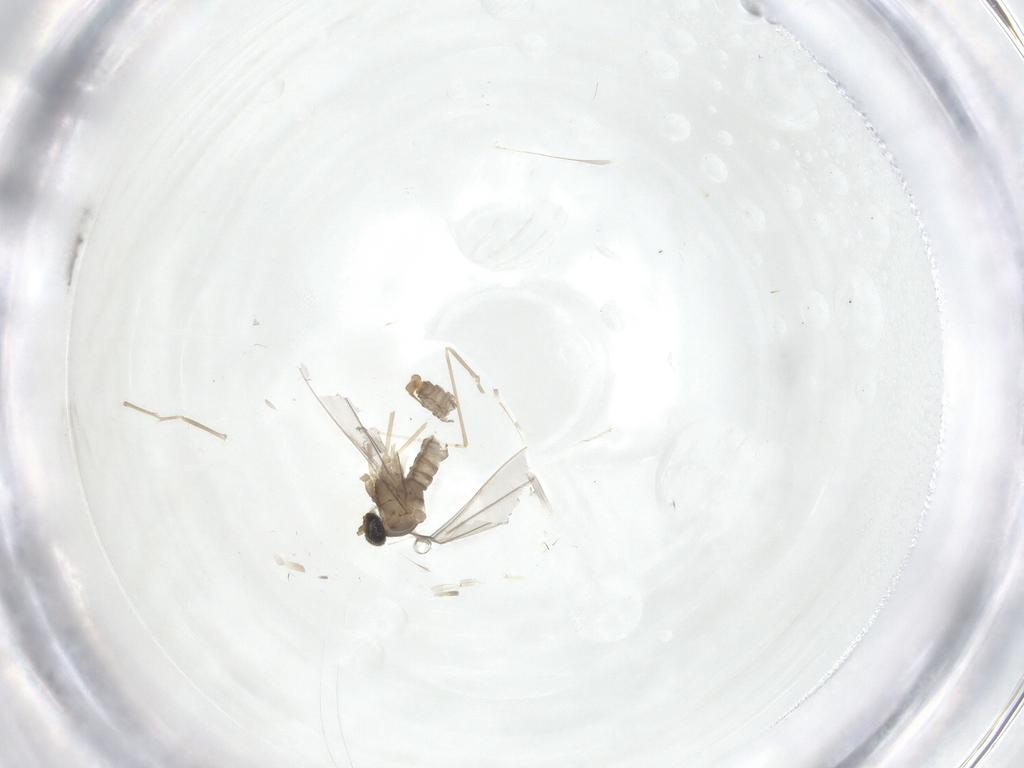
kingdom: Animalia
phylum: Arthropoda
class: Insecta
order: Diptera
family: Cecidomyiidae
